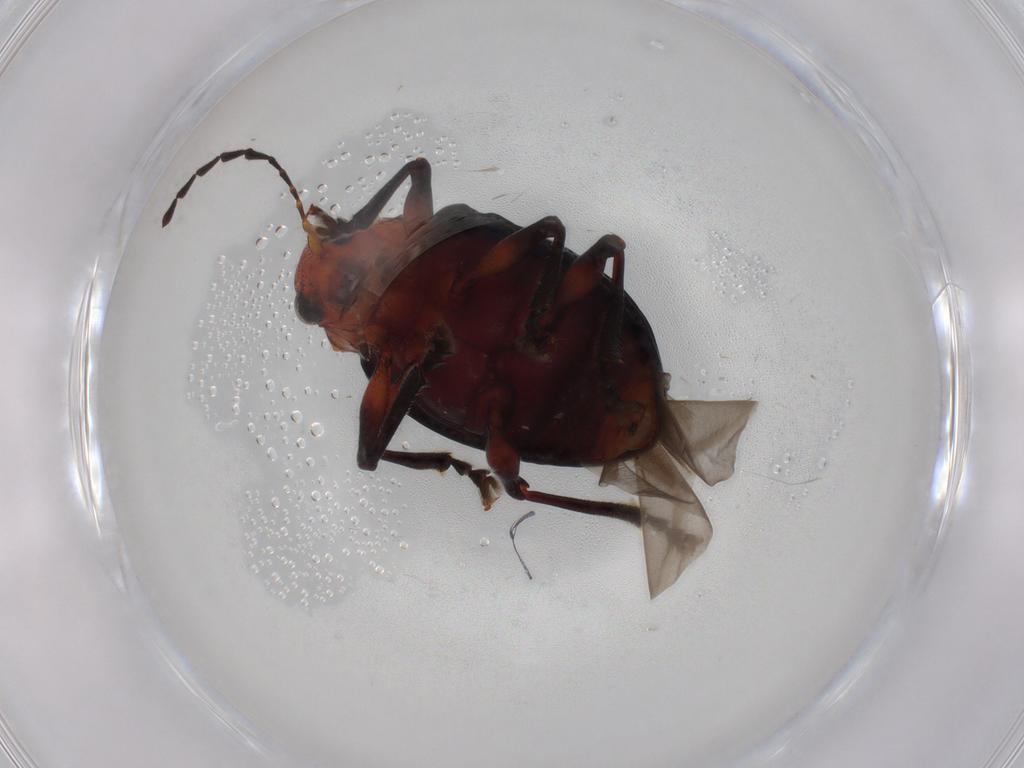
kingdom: Animalia
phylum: Arthropoda
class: Insecta
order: Coleoptera
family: Chrysomelidae
